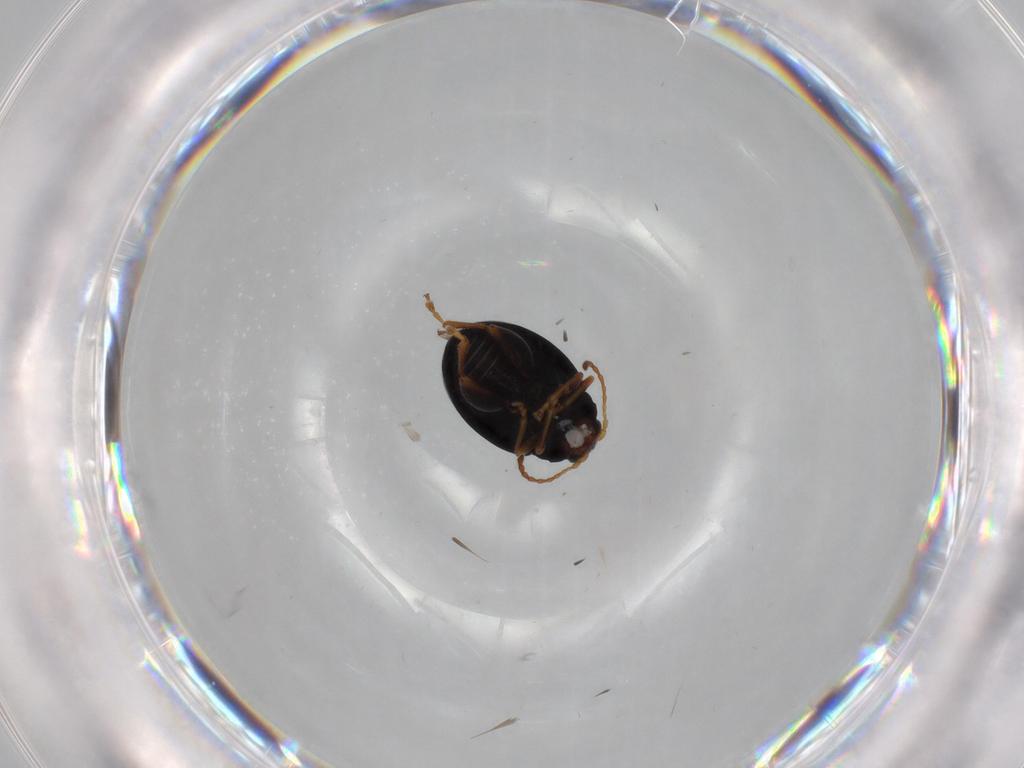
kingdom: Animalia
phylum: Arthropoda
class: Insecta
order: Coleoptera
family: Chrysomelidae
